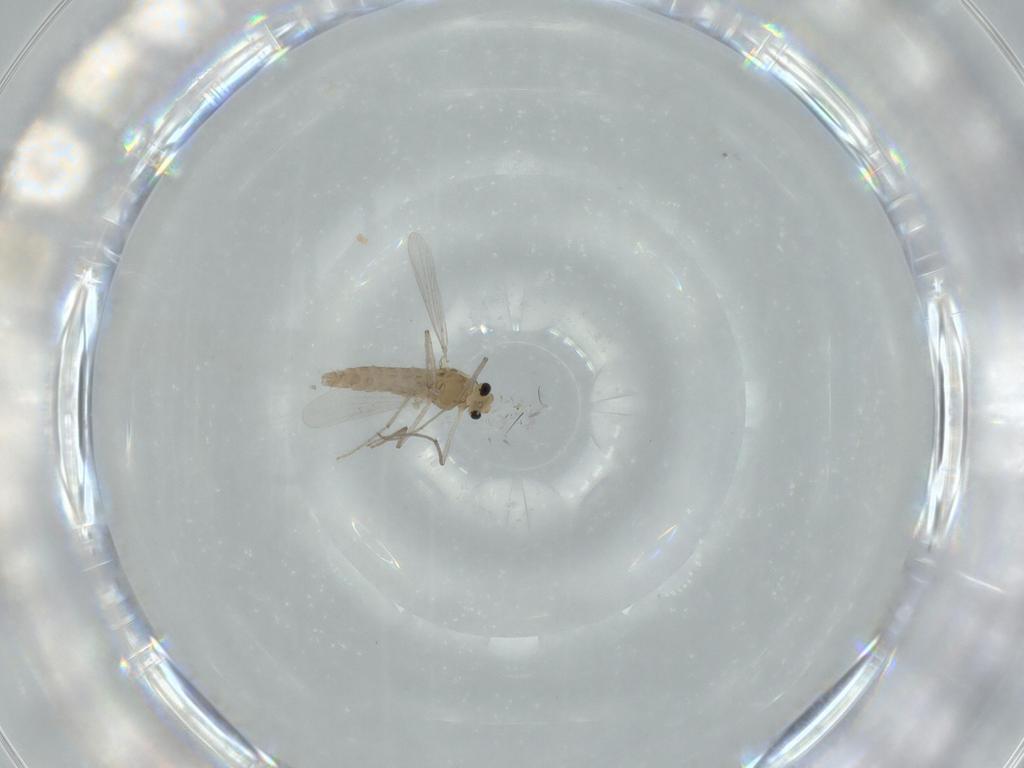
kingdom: Animalia
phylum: Arthropoda
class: Insecta
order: Diptera
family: Chironomidae
